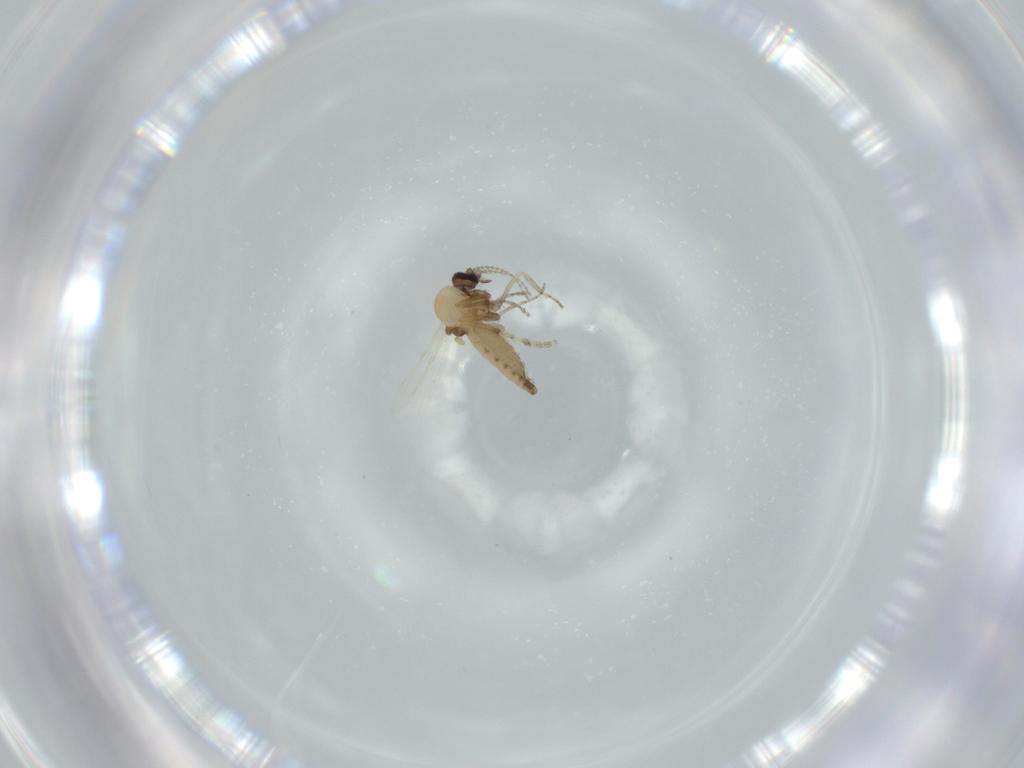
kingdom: Animalia
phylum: Arthropoda
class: Insecta
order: Diptera
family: Ceratopogonidae
